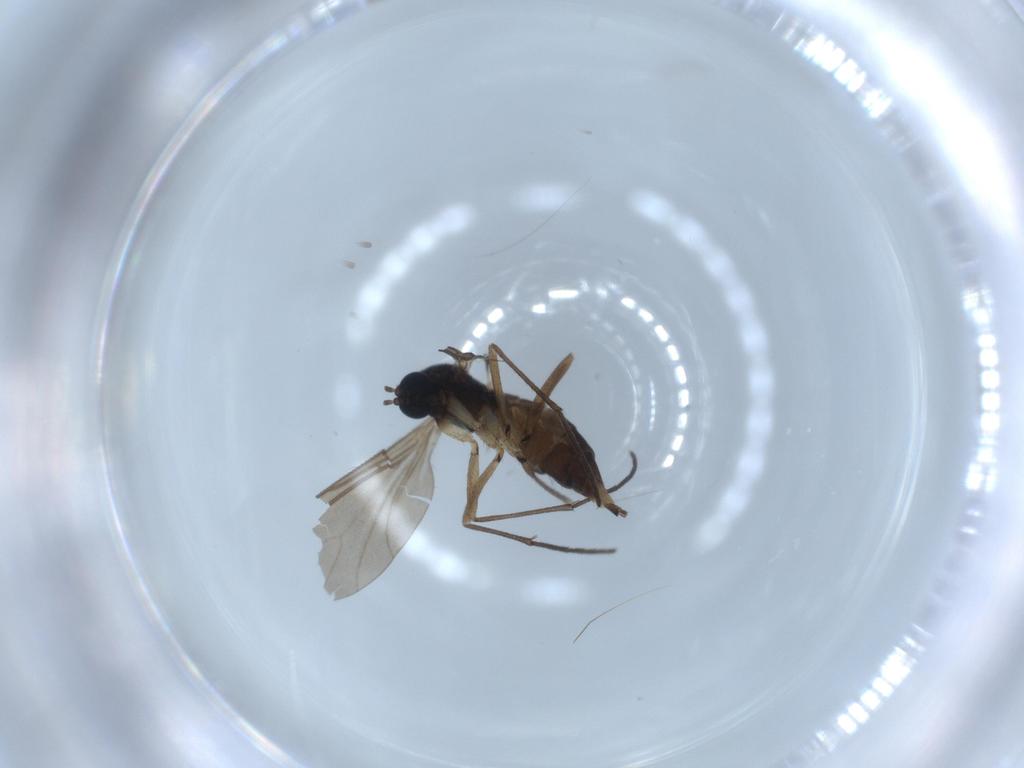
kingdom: Animalia
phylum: Arthropoda
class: Insecta
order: Diptera
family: Sciaridae
